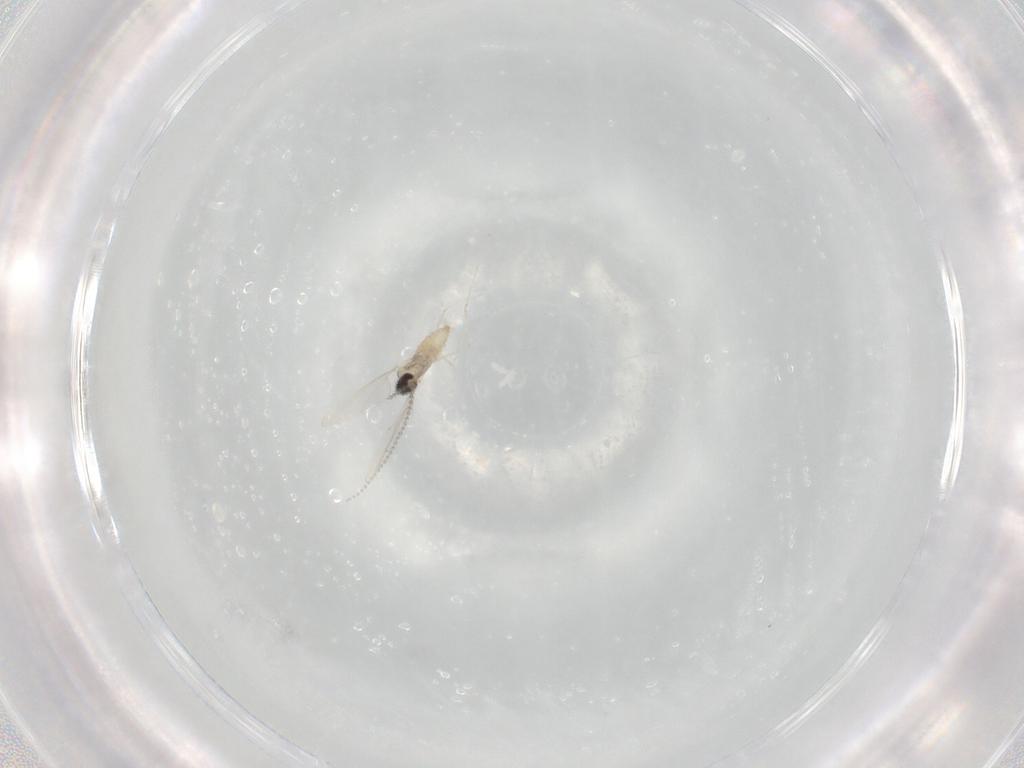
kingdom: Animalia
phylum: Arthropoda
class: Insecta
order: Diptera
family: Cecidomyiidae
